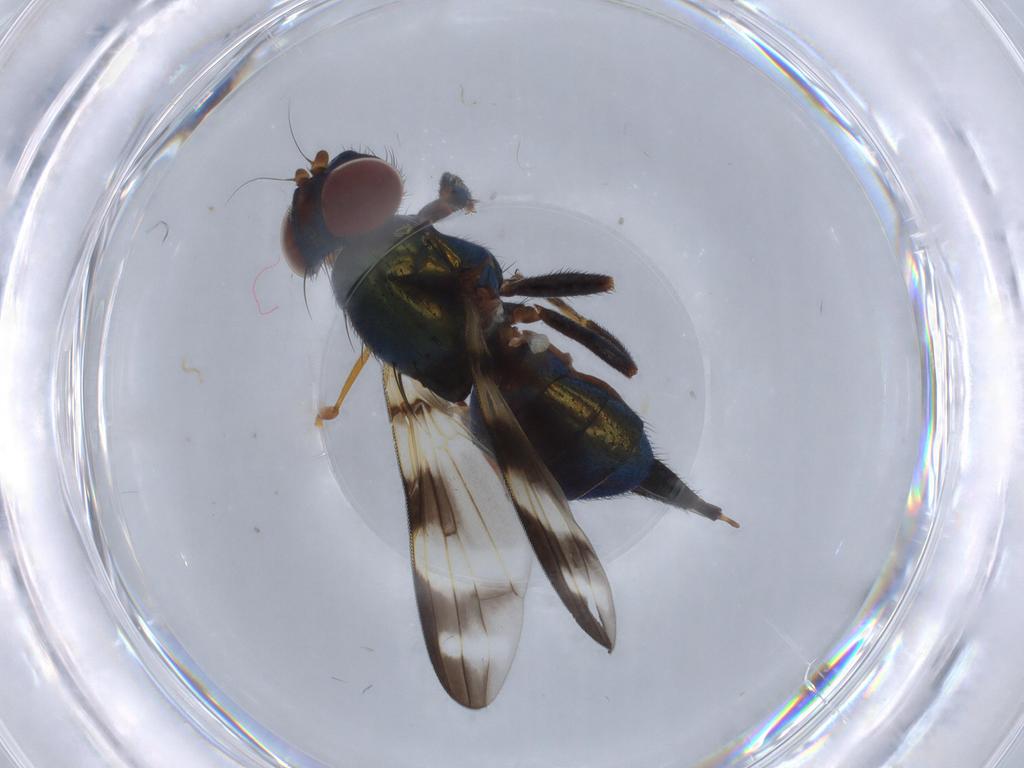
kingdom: Animalia
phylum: Arthropoda
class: Insecta
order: Diptera
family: Ulidiidae
